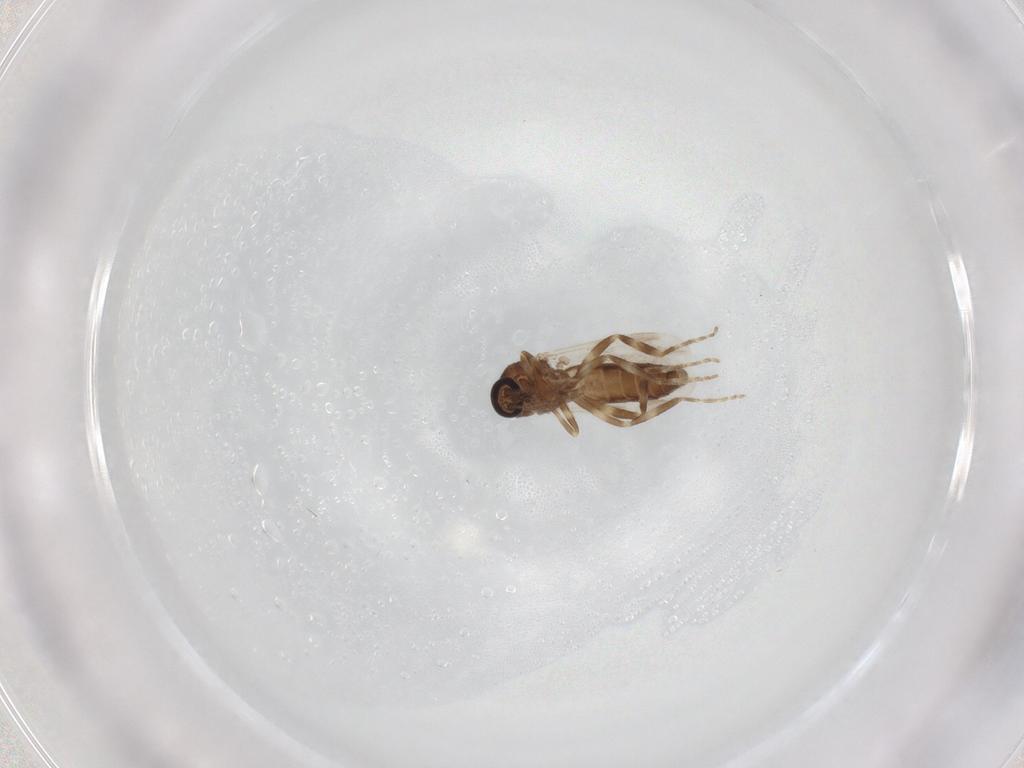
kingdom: Animalia
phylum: Arthropoda
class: Insecta
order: Diptera
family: Ceratopogonidae
